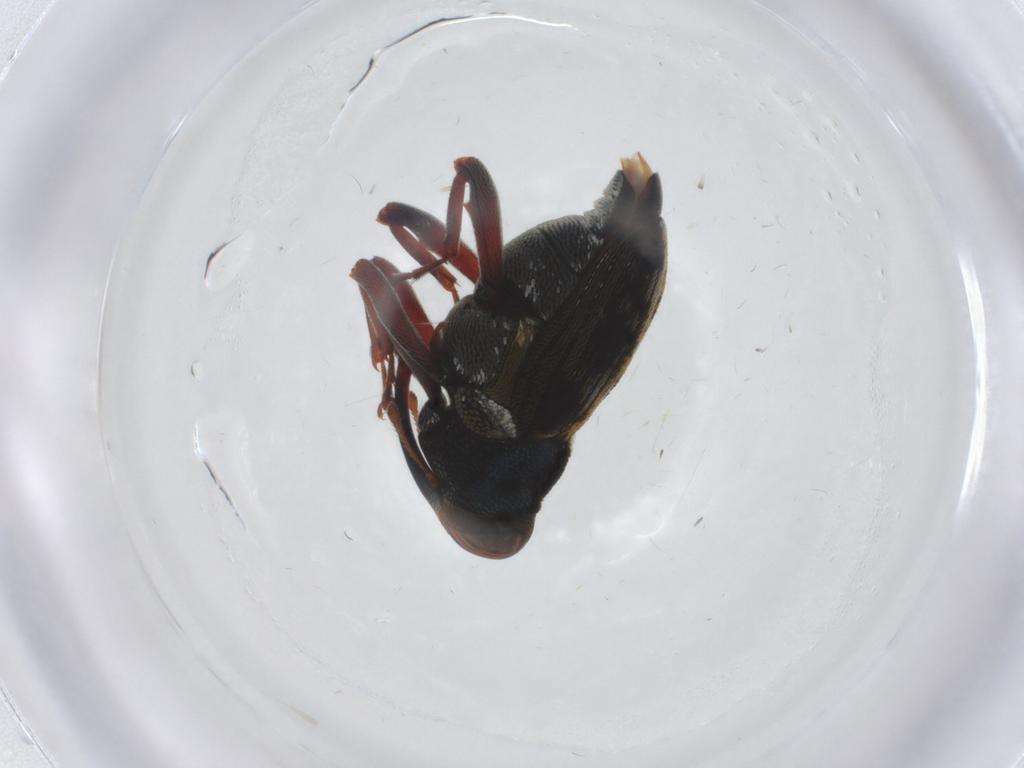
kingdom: Animalia
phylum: Arthropoda
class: Insecta
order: Coleoptera
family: Curculionidae
